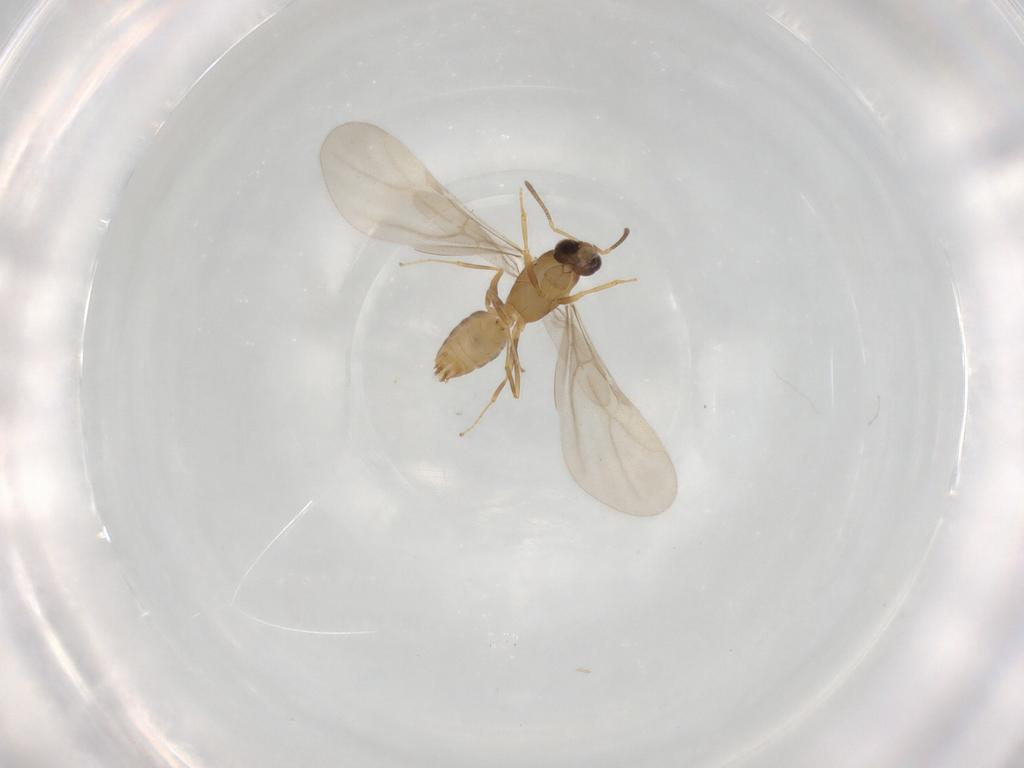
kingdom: Animalia
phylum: Arthropoda
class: Insecta
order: Hymenoptera
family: Formicidae
